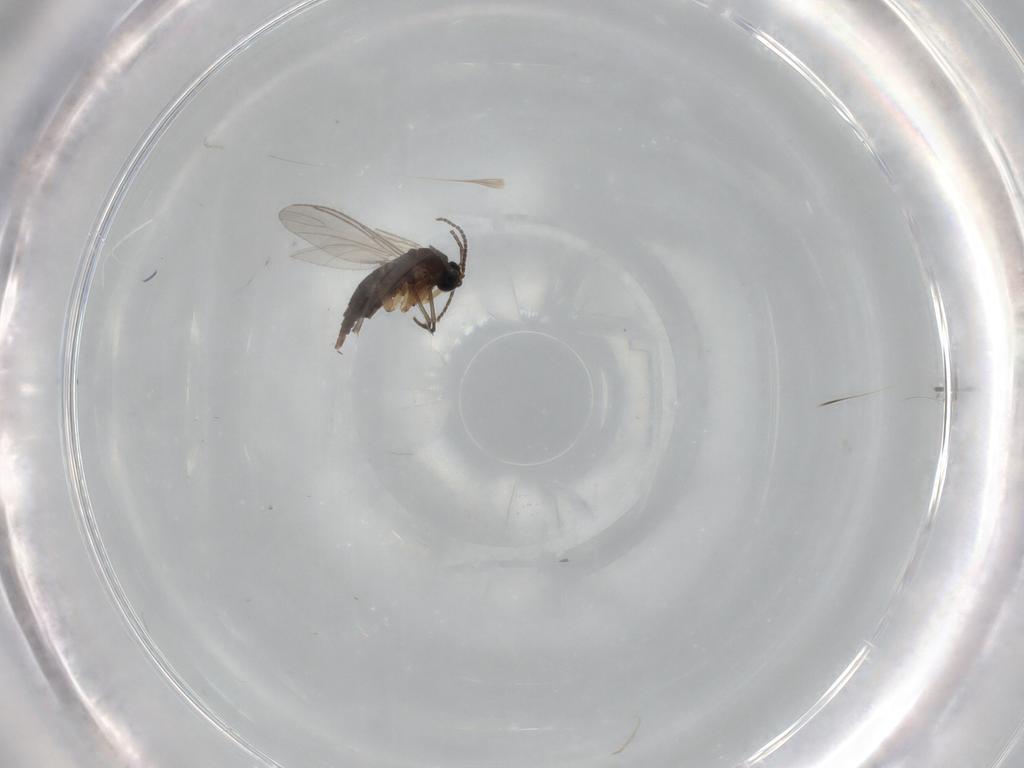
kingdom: Animalia
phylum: Arthropoda
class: Insecta
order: Diptera
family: Sciaridae
